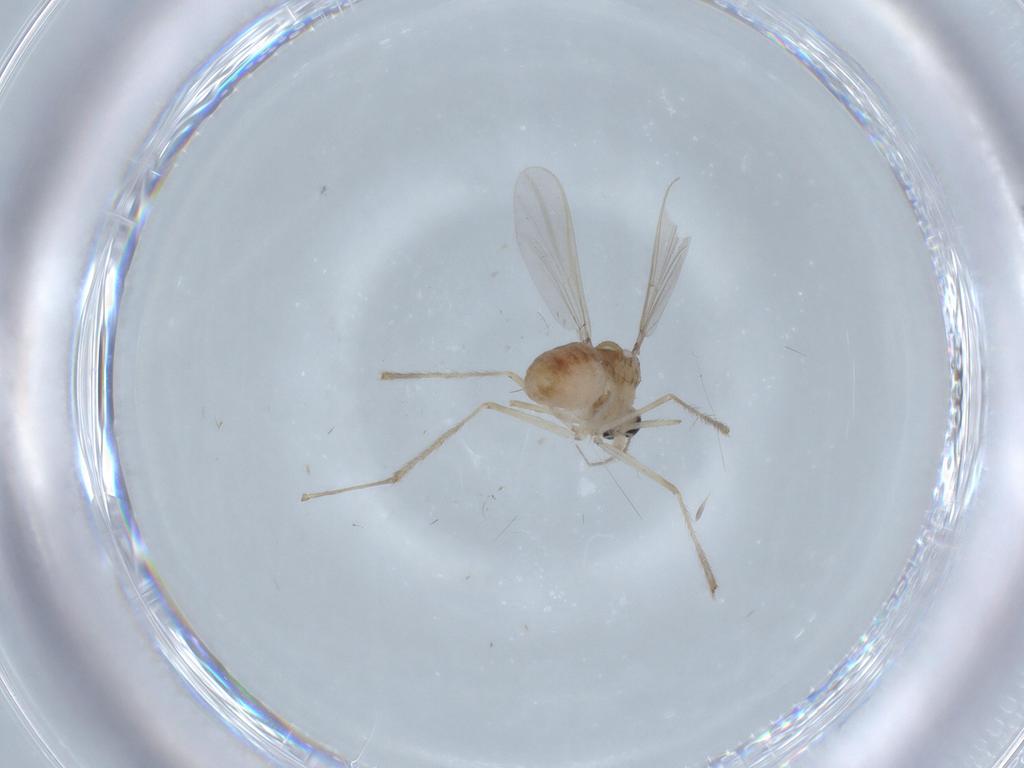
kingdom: Animalia
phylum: Arthropoda
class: Insecta
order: Diptera
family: Chironomidae
